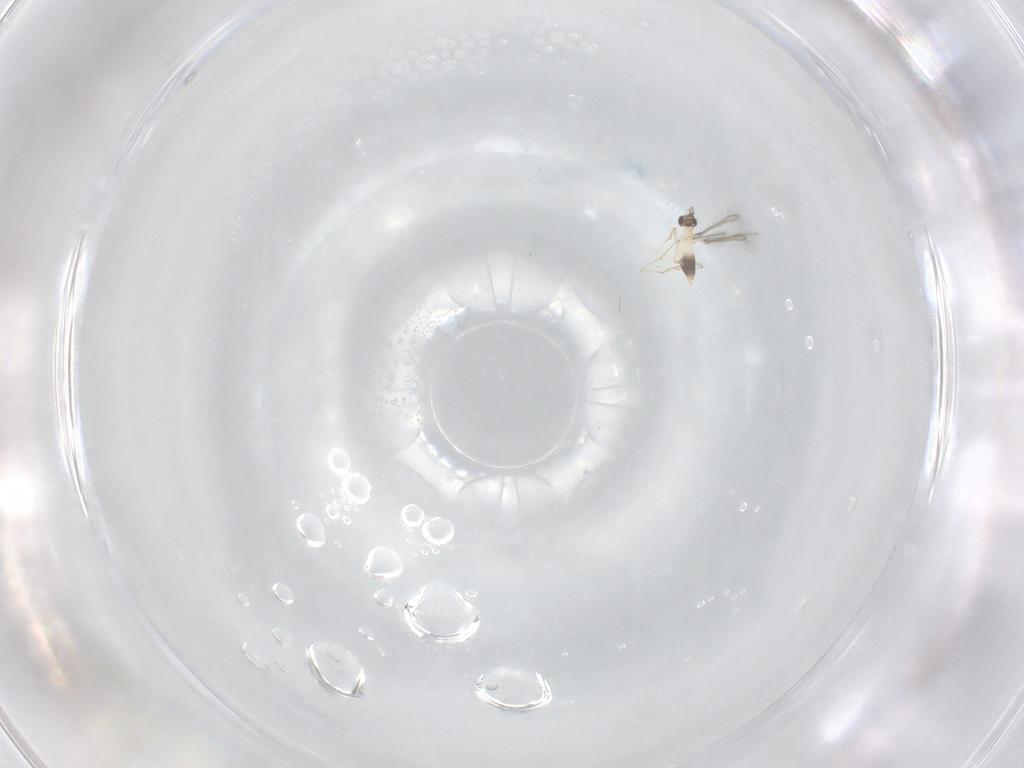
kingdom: Animalia
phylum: Arthropoda
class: Insecta
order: Hymenoptera
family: Mymaridae
